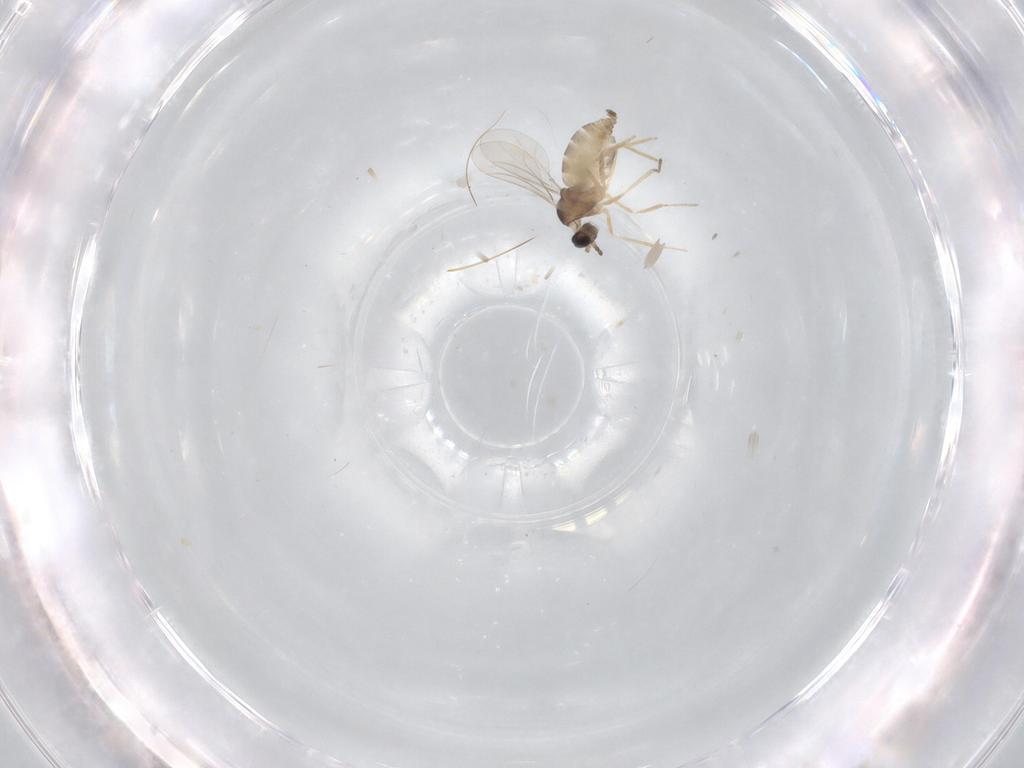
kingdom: Animalia
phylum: Arthropoda
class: Insecta
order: Diptera
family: Cecidomyiidae
